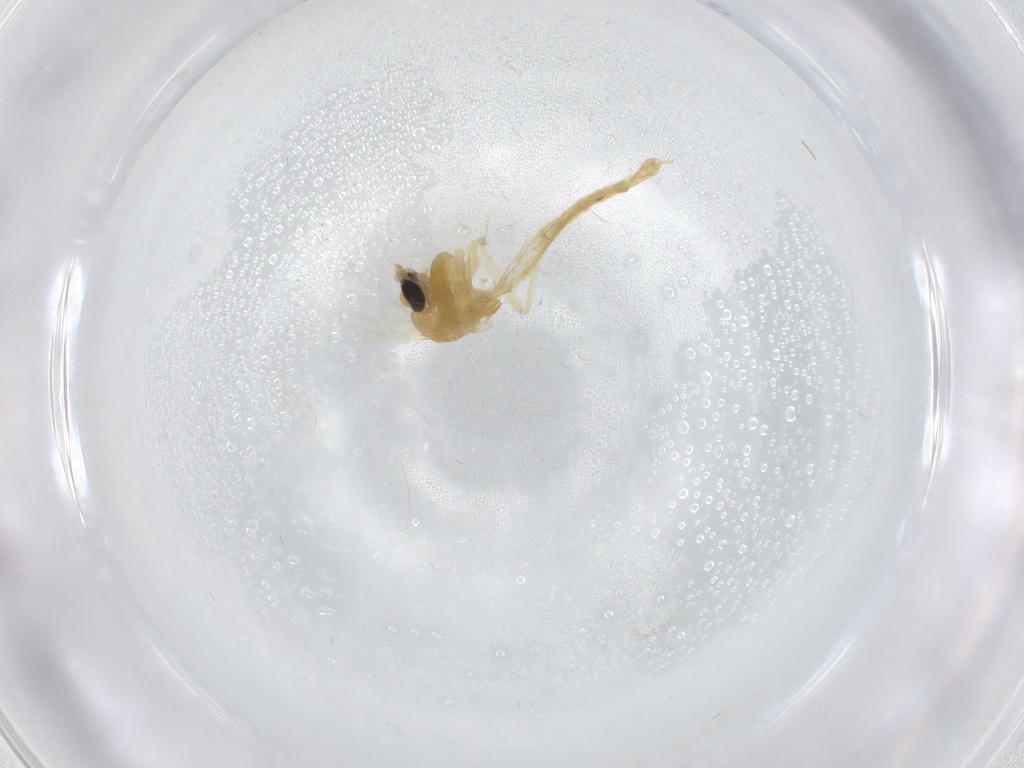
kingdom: Animalia
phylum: Arthropoda
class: Insecta
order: Diptera
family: Chironomidae
